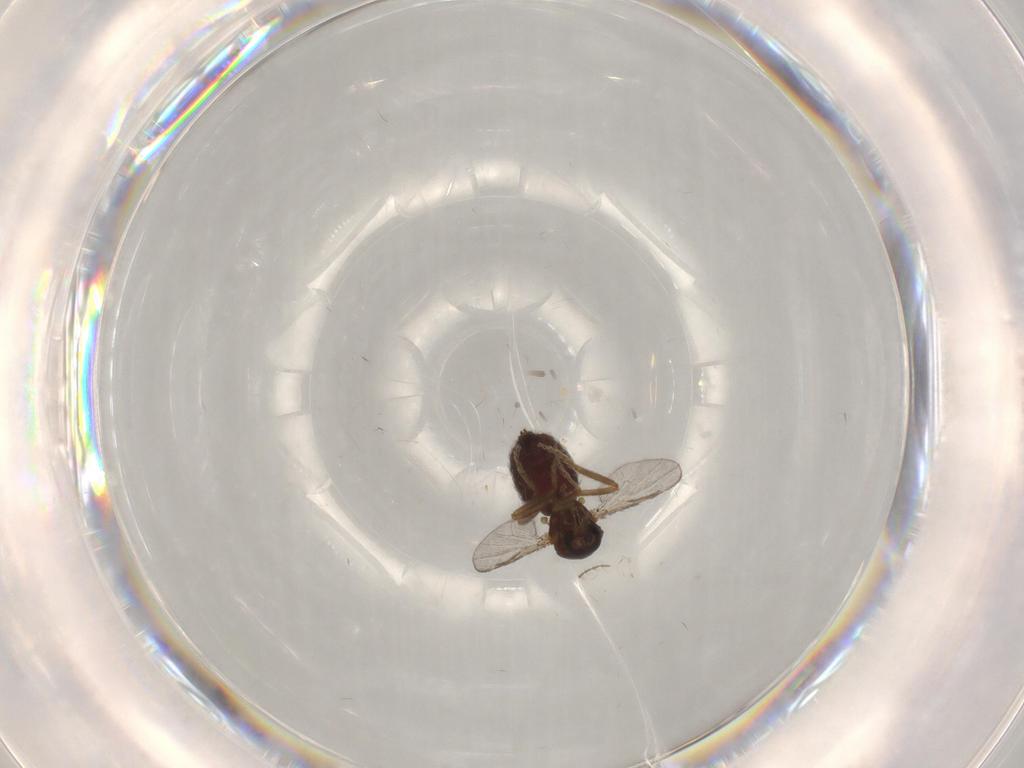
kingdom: Animalia
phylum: Arthropoda
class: Insecta
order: Diptera
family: Ceratopogonidae
